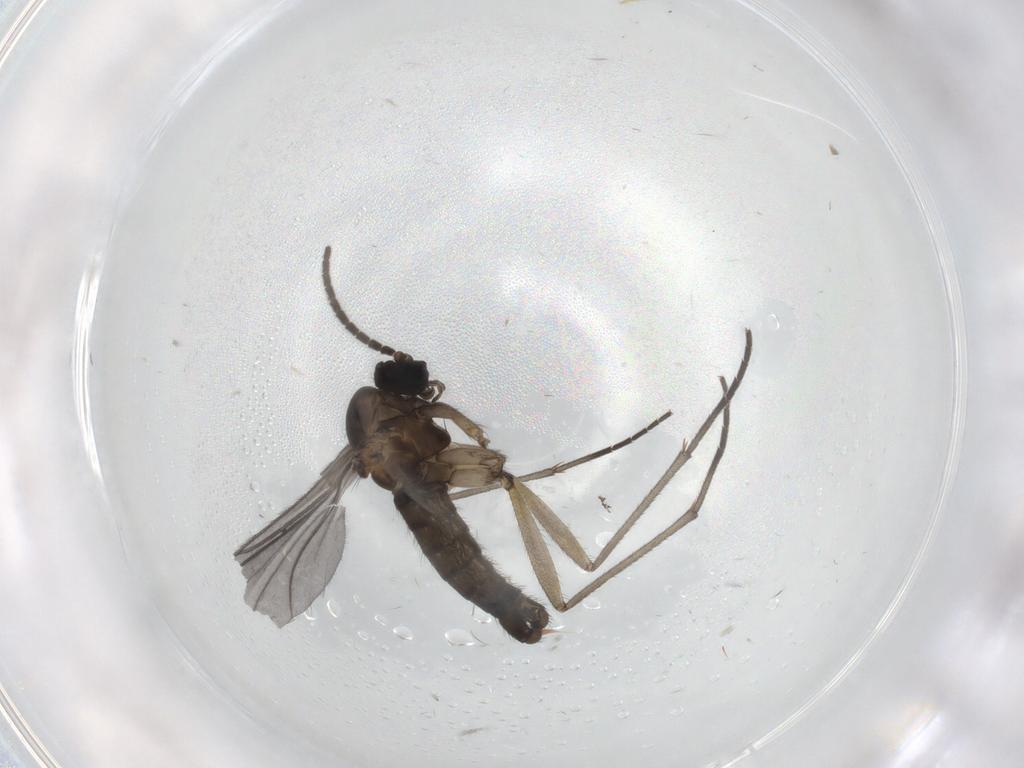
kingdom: Animalia
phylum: Arthropoda
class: Insecta
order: Diptera
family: Sciaridae
